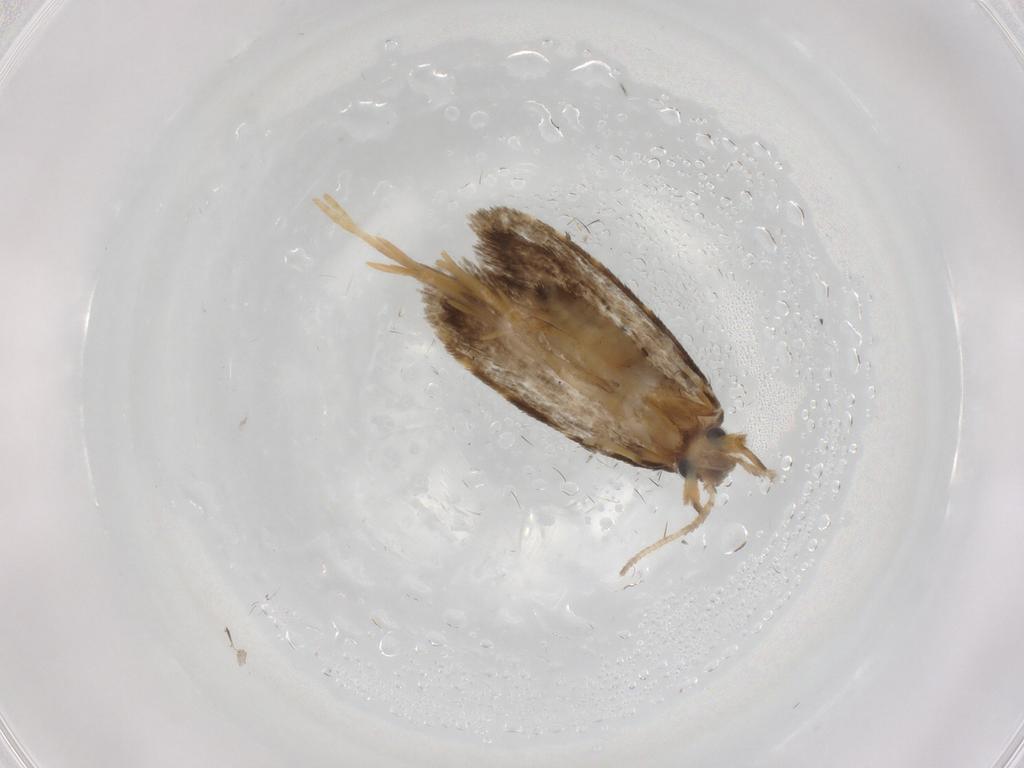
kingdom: Animalia
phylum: Arthropoda
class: Insecta
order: Lepidoptera
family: Psychidae
